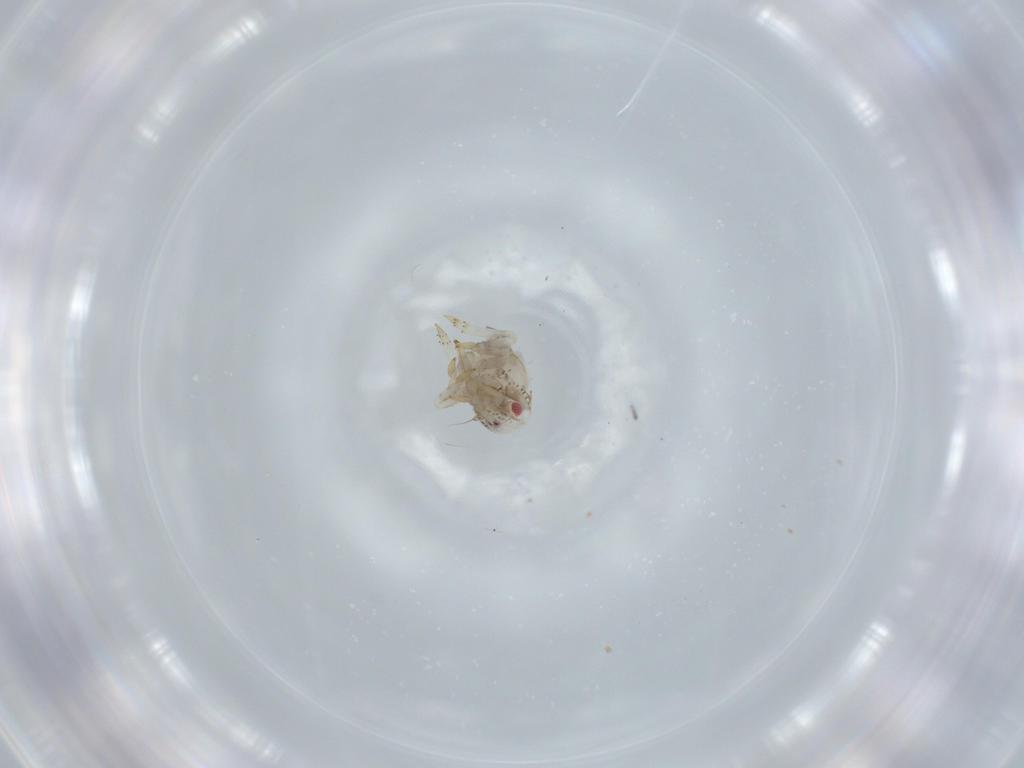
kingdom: Animalia
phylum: Arthropoda
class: Insecta
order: Hemiptera
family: Acanaloniidae
